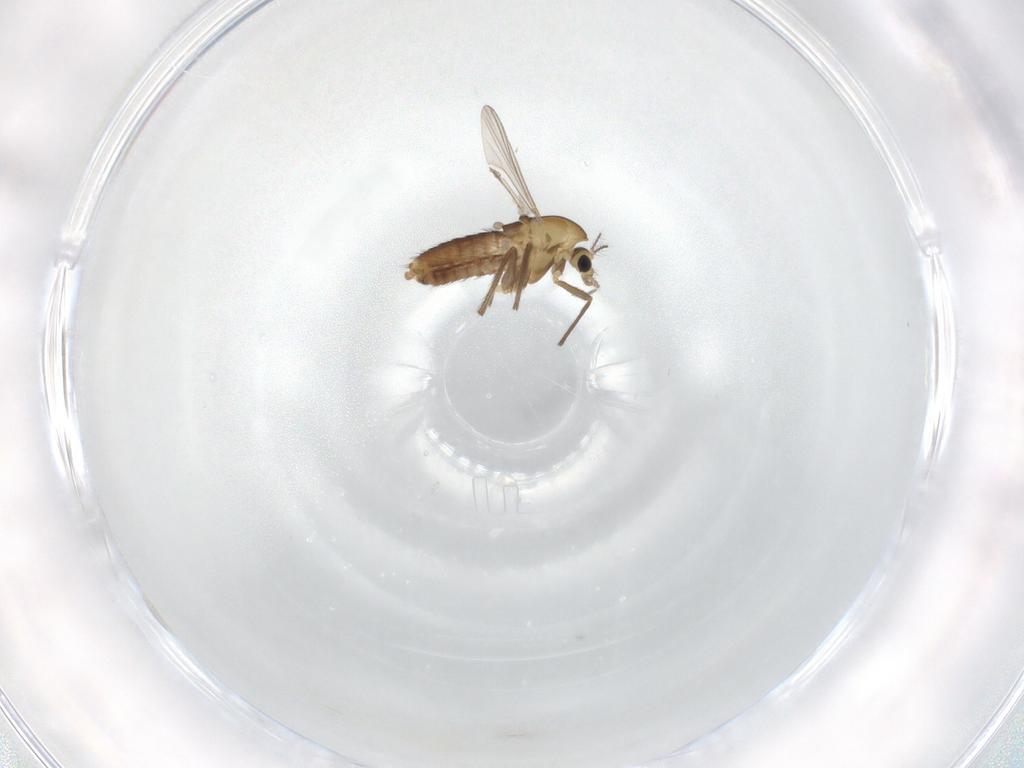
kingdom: Animalia
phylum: Arthropoda
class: Insecta
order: Diptera
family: Chironomidae
